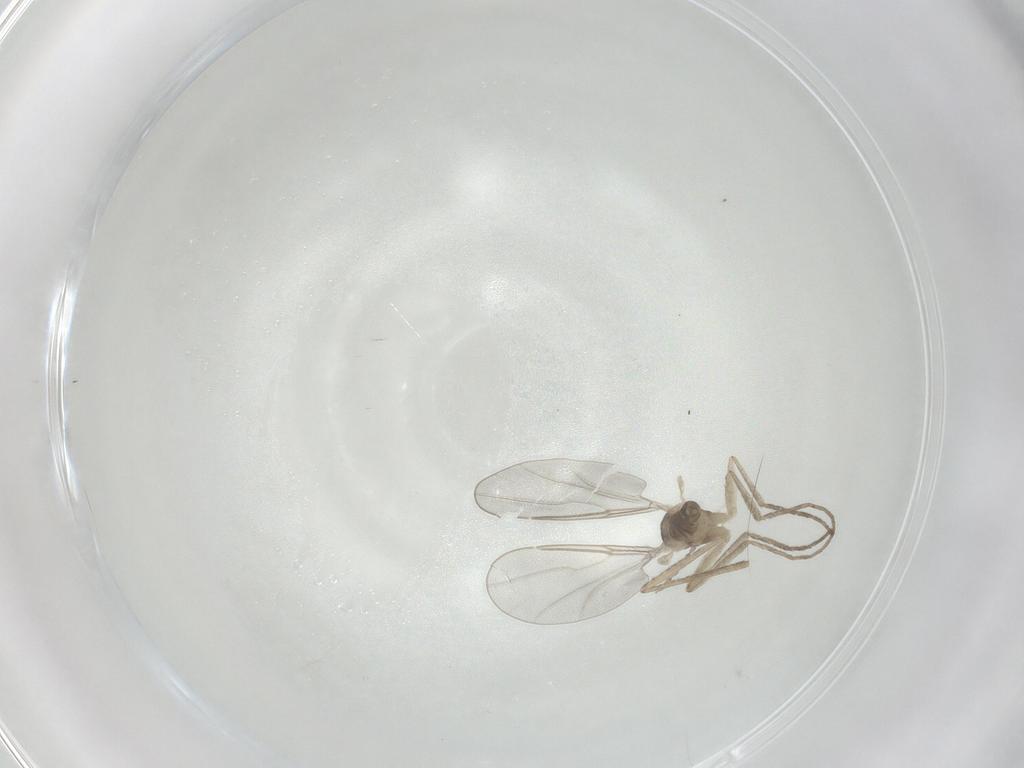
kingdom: Animalia
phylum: Arthropoda
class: Insecta
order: Diptera
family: Cecidomyiidae
